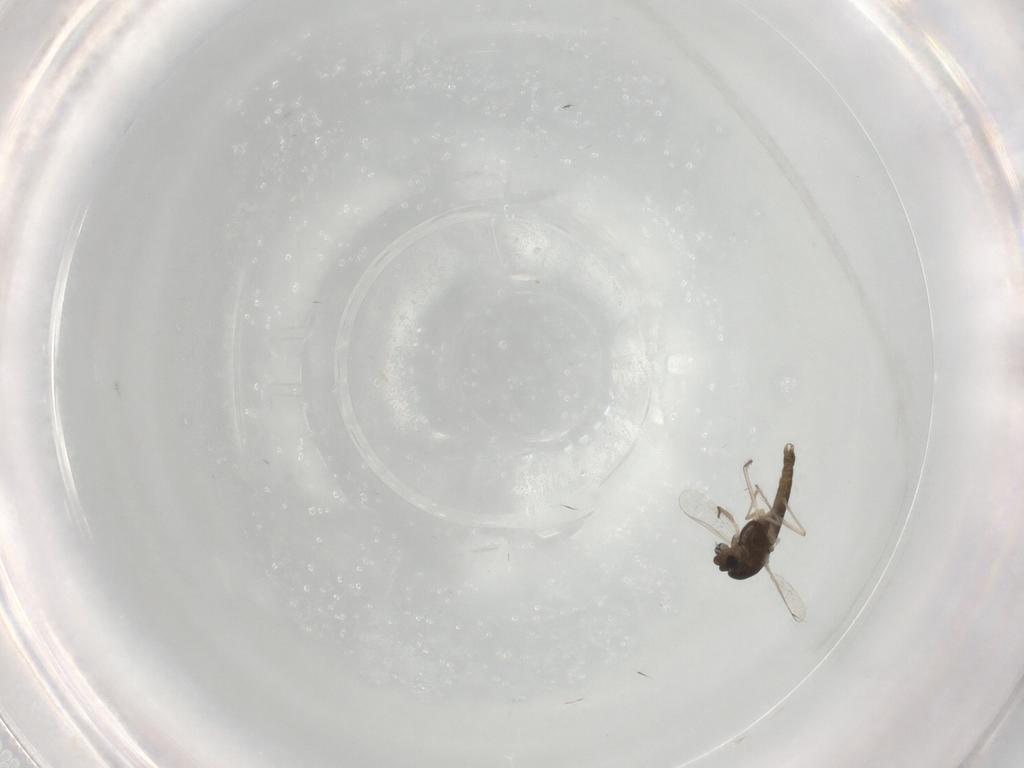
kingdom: Animalia
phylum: Arthropoda
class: Insecta
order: Diptera
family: Chironomidae
